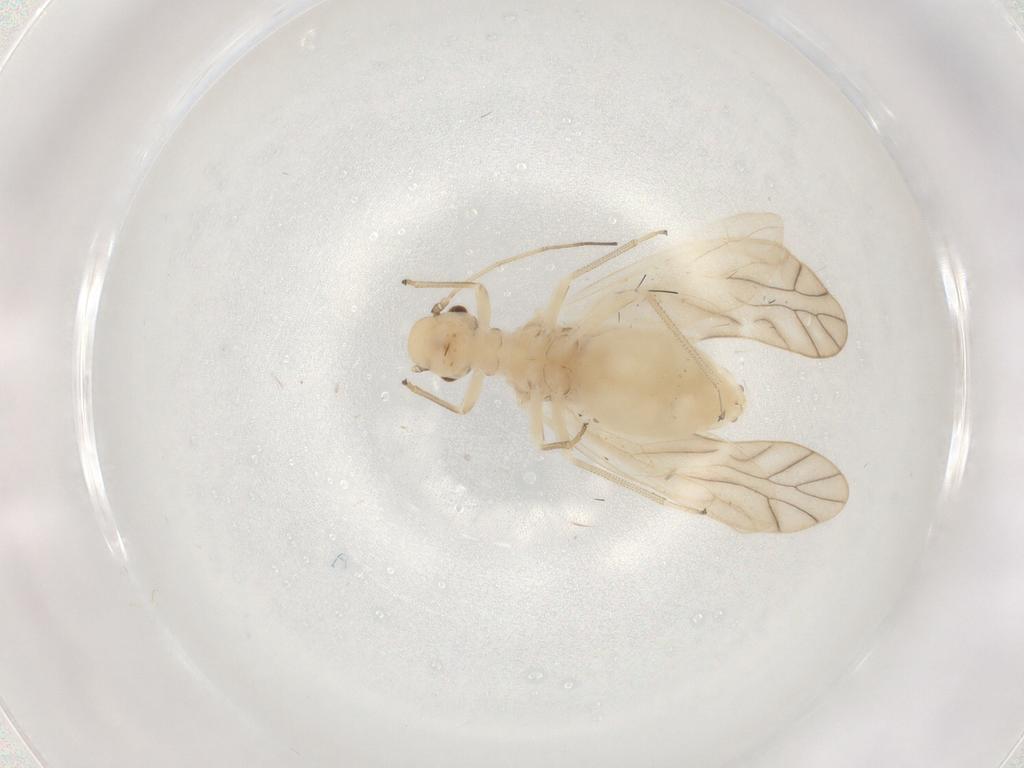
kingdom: Animalia
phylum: Arthropoda
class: Insecta
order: Psocodea
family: Caeciliusidae
